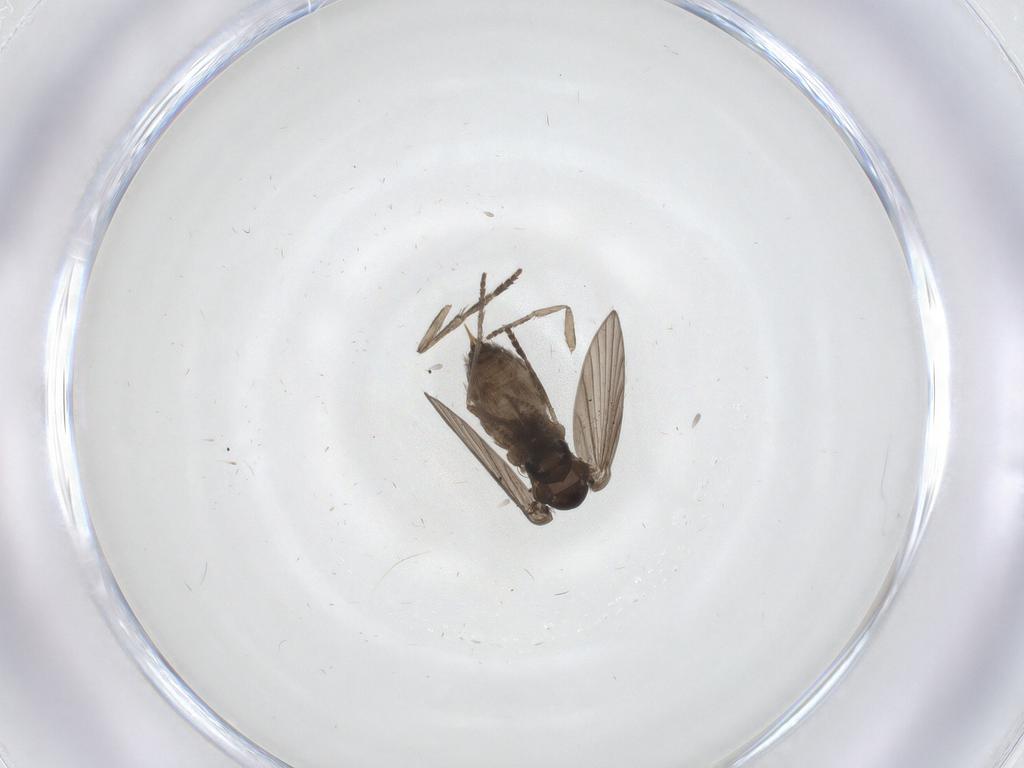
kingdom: Animalia
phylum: Arthropoda
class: Insecta
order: Diptera
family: Psychodidae
